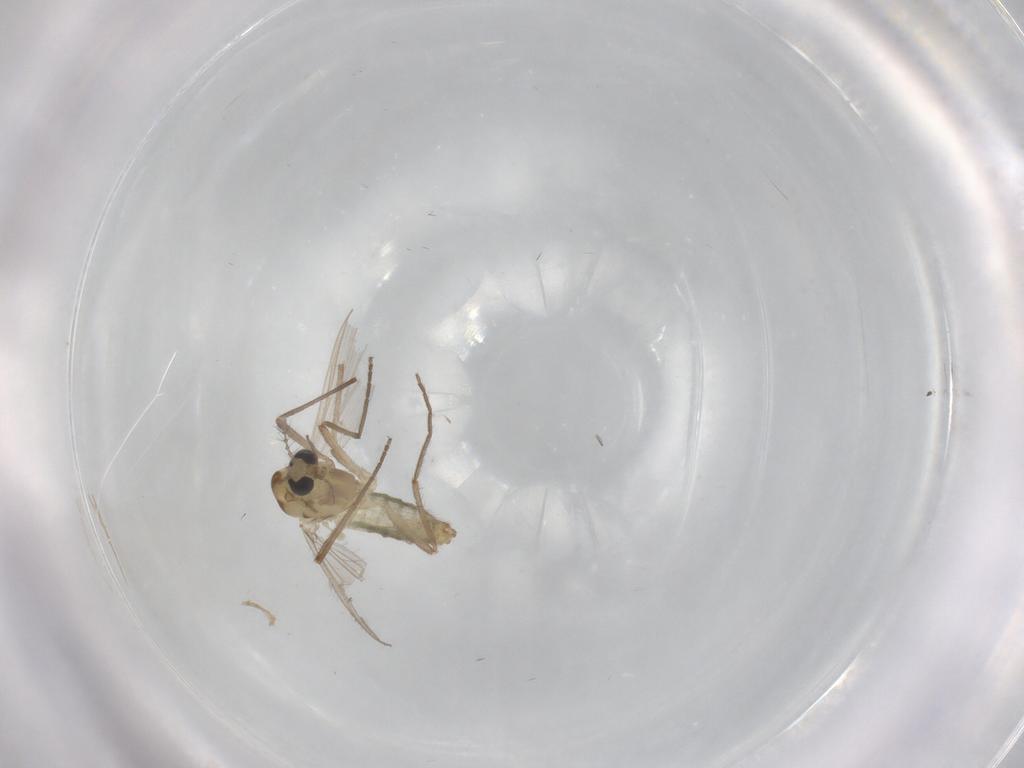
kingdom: Animalia
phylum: Arthropoda
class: Insecta
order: Diptera
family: Chironomidae
